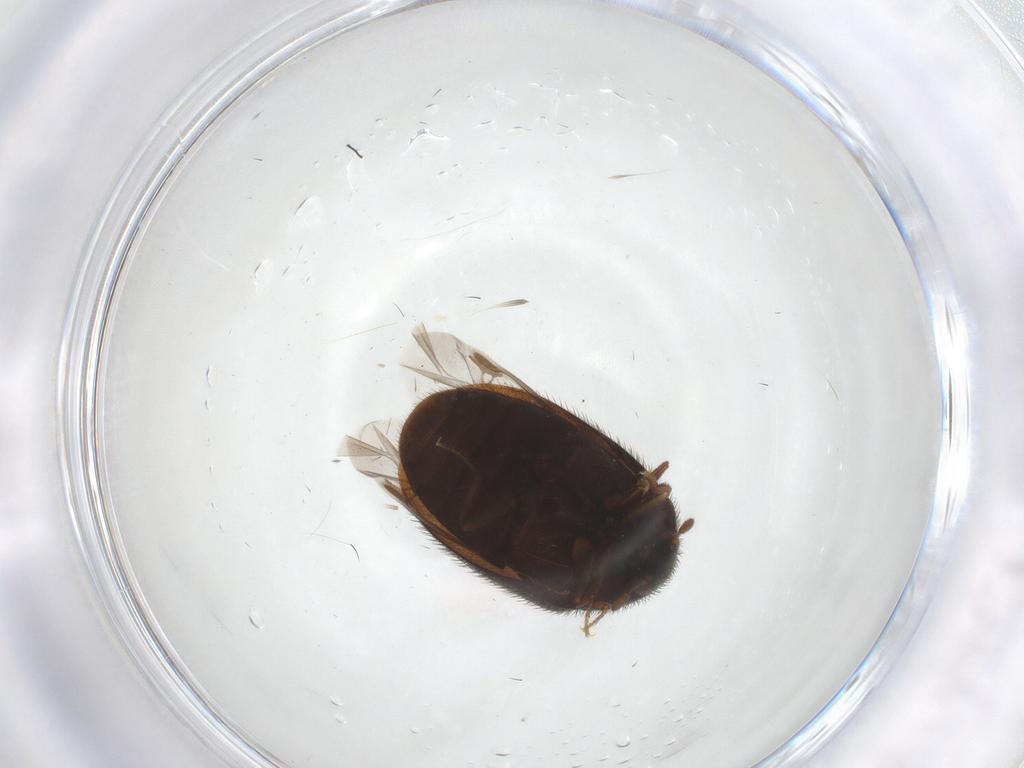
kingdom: Animalia
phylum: Arthropoda
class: Insecta
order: Coleoptera
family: Dermestidae
